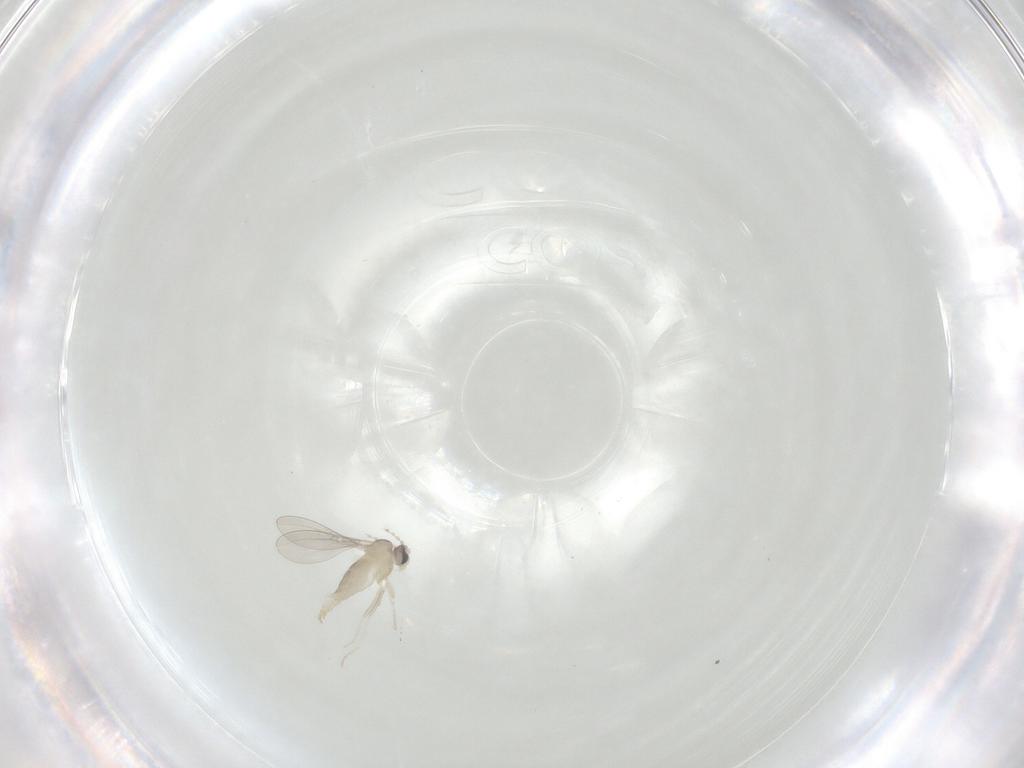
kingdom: Animalia
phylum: Arthropoda
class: Insecta
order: Diptera
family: Cecidomyiidae
